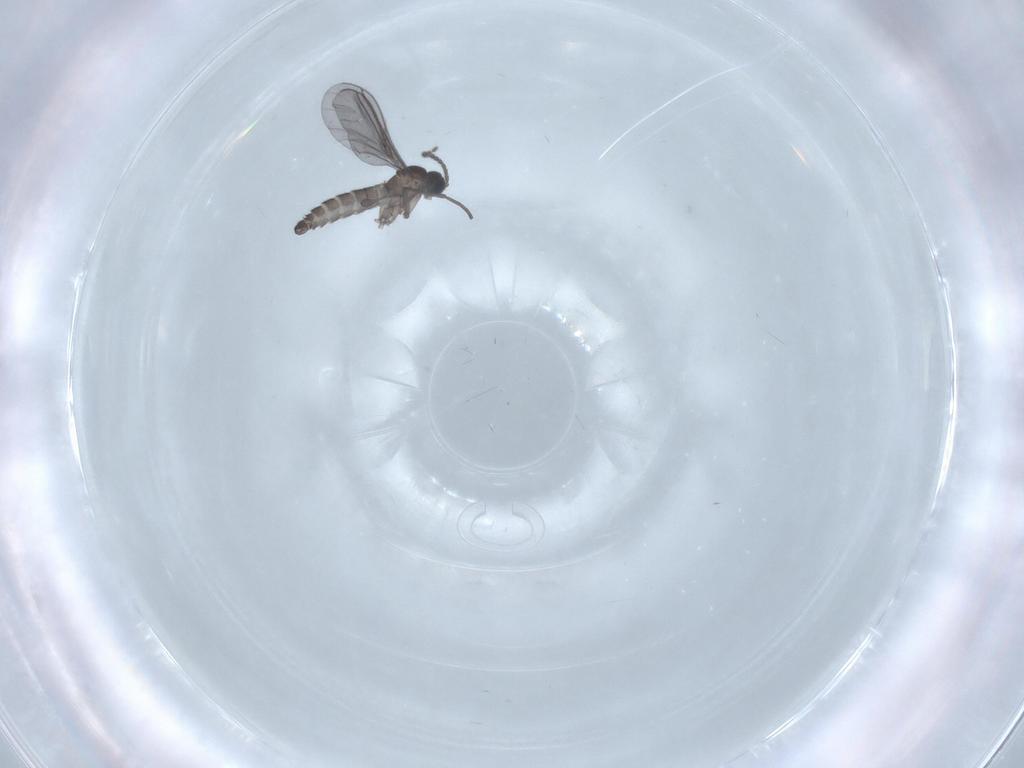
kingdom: Animalia
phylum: Arthropoda
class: Insecta
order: Diptera
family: Sciaridae
